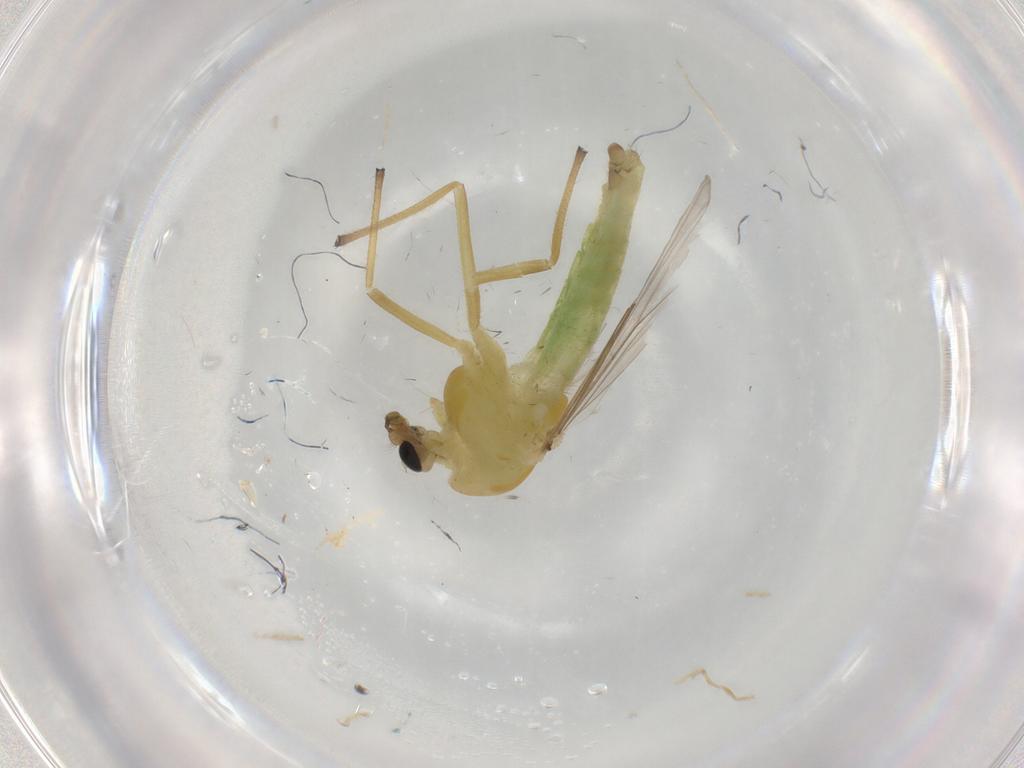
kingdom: Animalia
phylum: Arthropoda
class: Insecta
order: Diptera
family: Chironomidae
